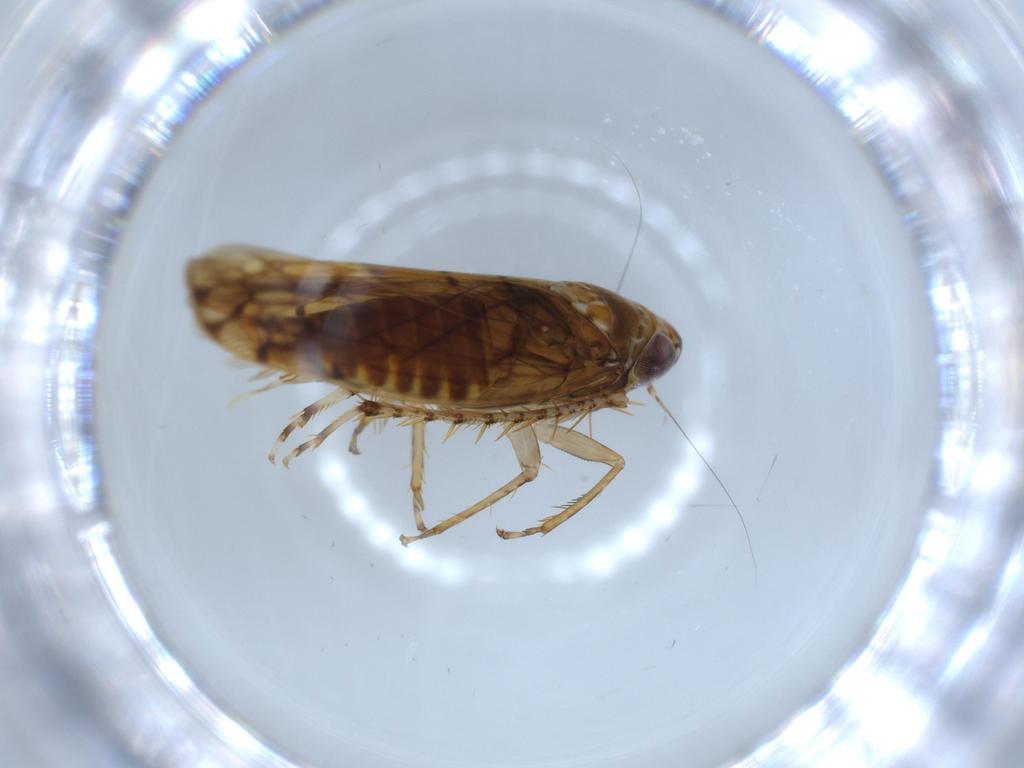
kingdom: Animalia
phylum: Arthropoda
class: Insecta
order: Hemiptera
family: Cicadellidae
